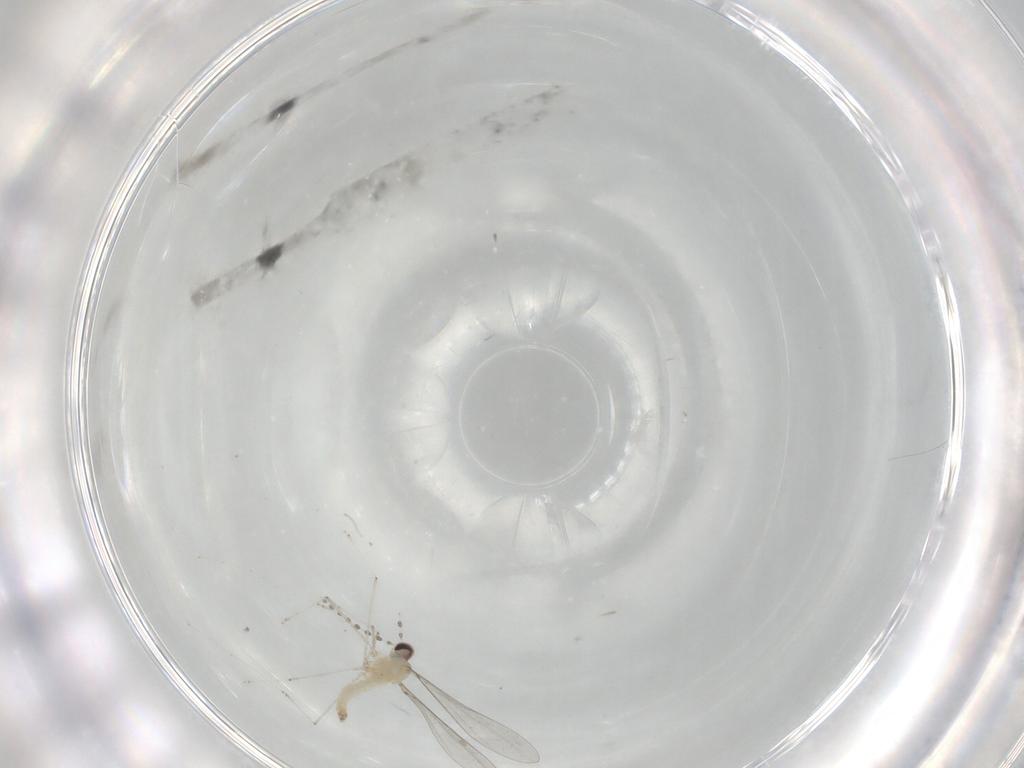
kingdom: Animalia
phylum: Arthropoda
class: Insecta
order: Diptera
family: Cecidomyiidae
